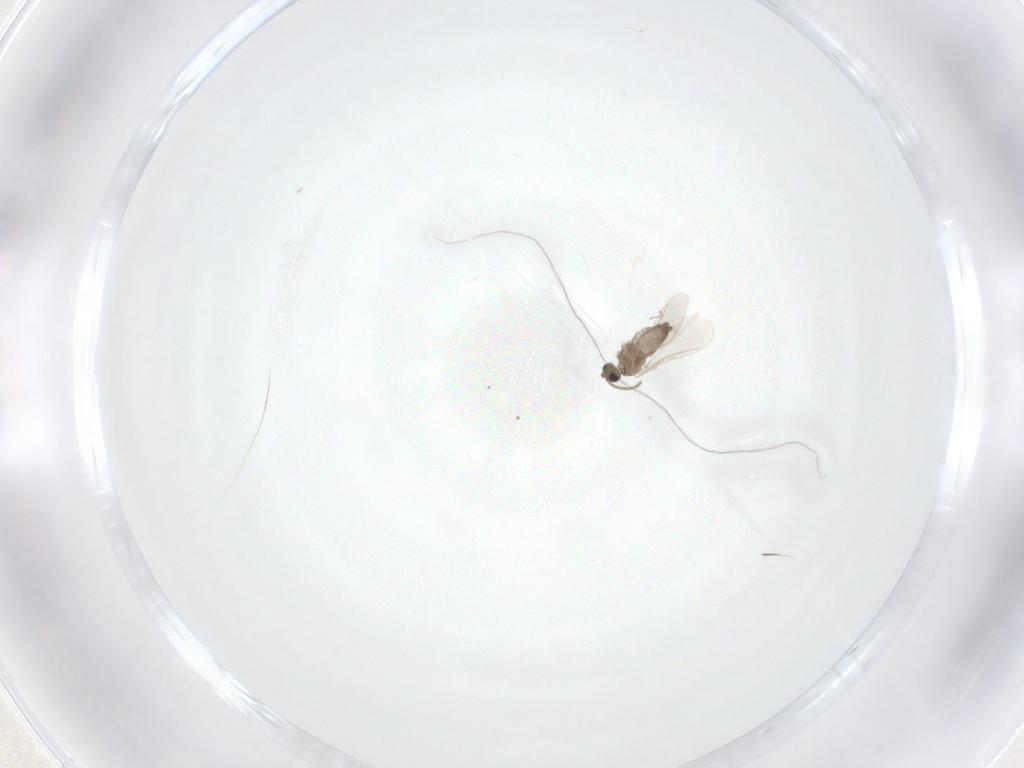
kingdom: Animalia
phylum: Arthropoda
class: Insecta
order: Diptera
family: Cecidomyiidae
